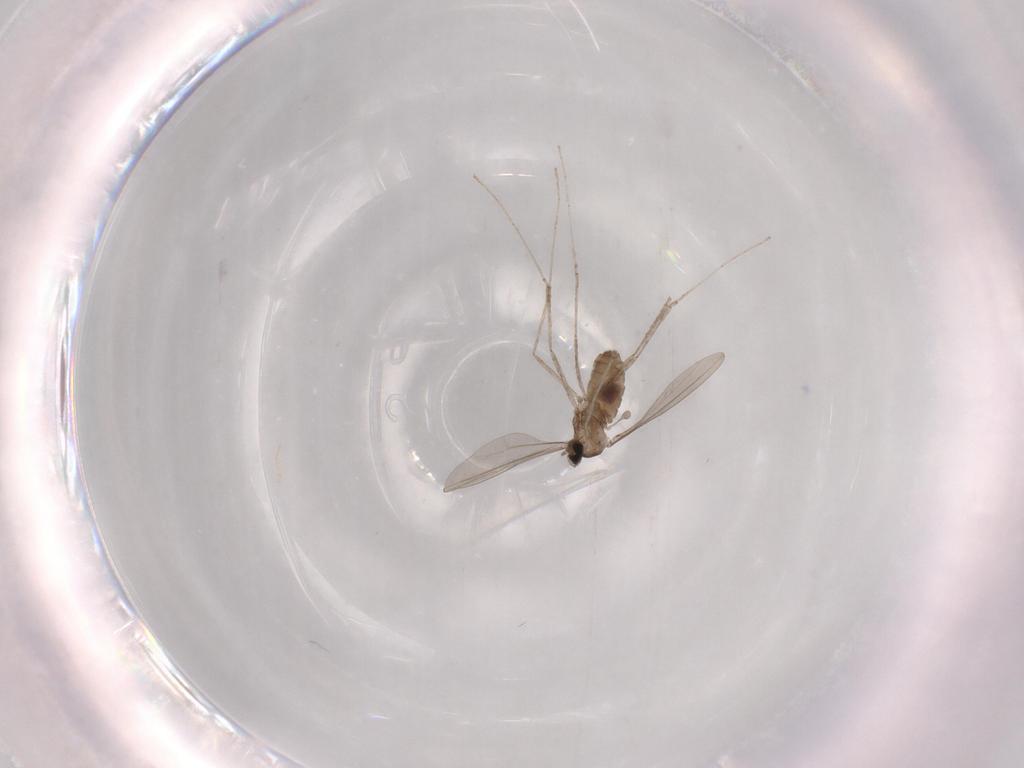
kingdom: Animalia
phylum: Arthropoda
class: Insecta
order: Diptera
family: Cecidomyiidae
